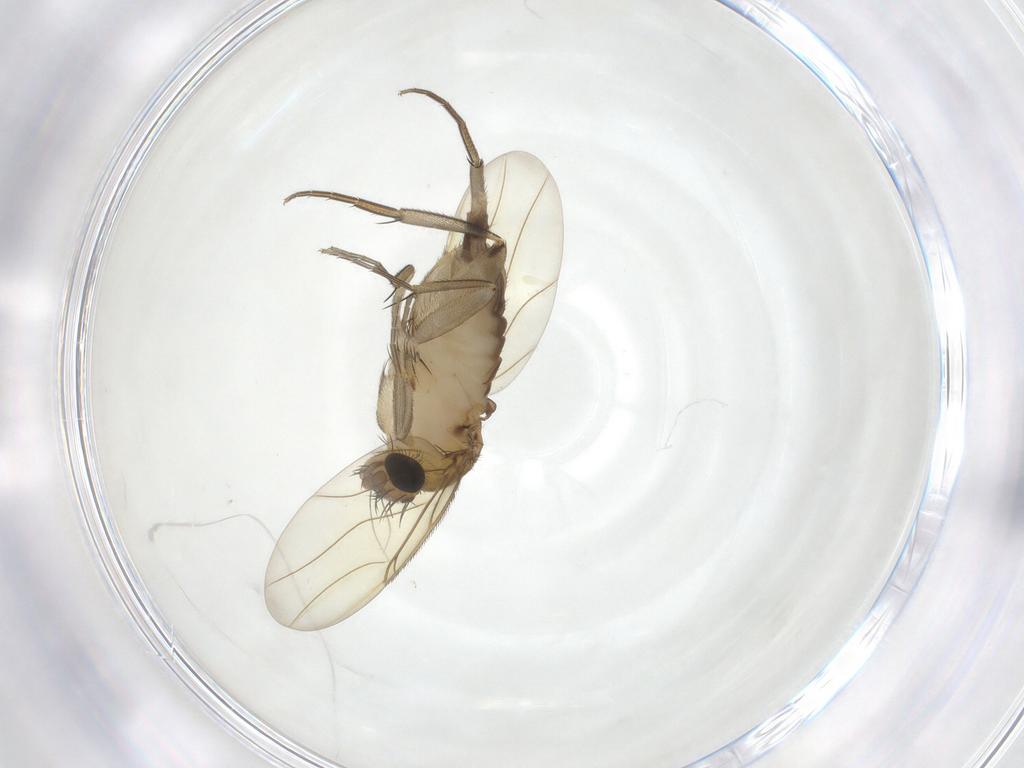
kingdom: Animalia
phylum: Arthropoda
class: Insecta
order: Diptera
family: Phoridae
